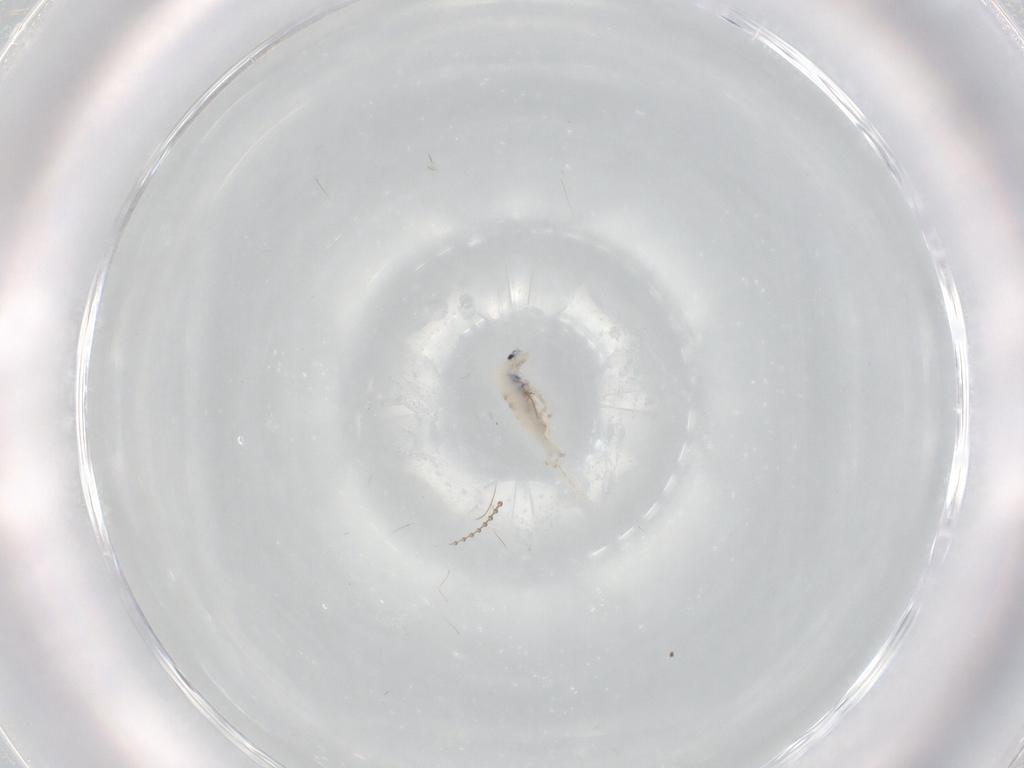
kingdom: Animalia
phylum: Arthropoda
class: Collembola
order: Entomobryomorpha
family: Entomobryidae
